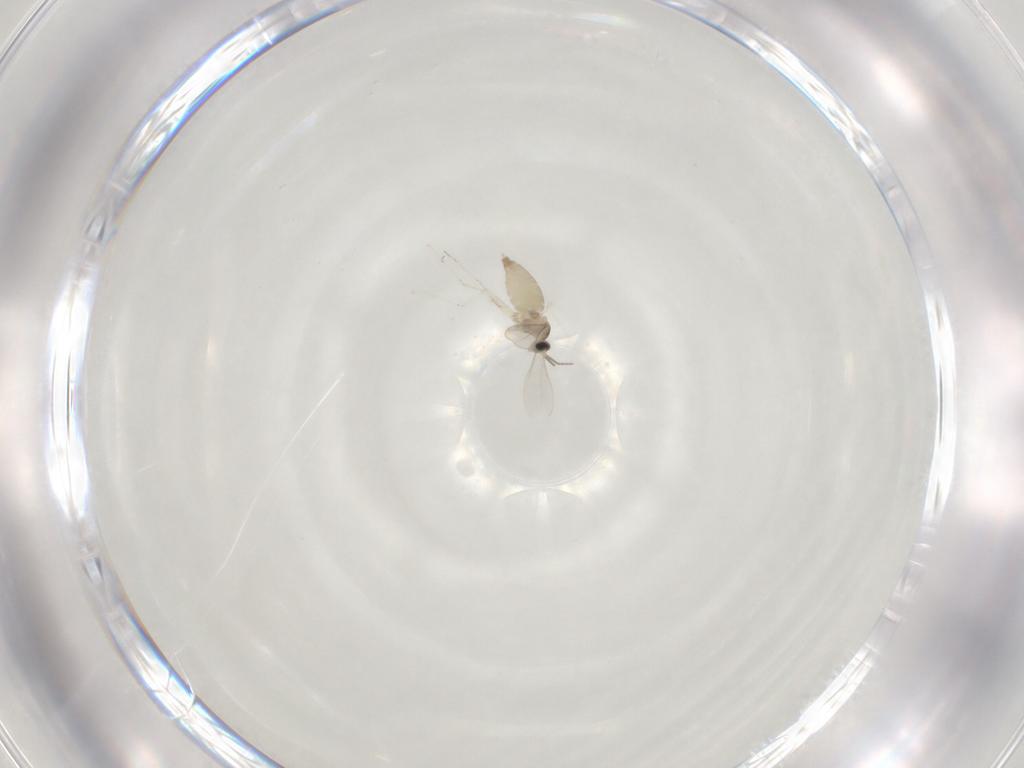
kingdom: Animalia
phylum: Arthropoda
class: Insecta
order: Diptera
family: Cecidomyiidae
